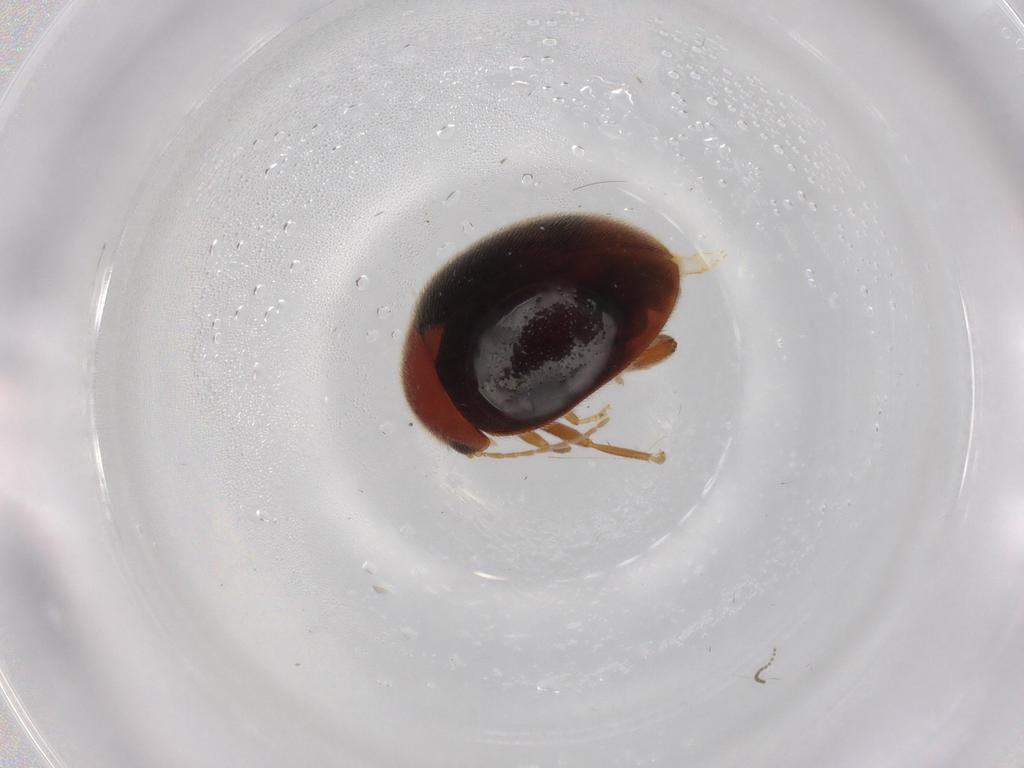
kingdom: Animalia
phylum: Arthropoda
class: Insecta
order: Coleoptera
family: Scirtidae
